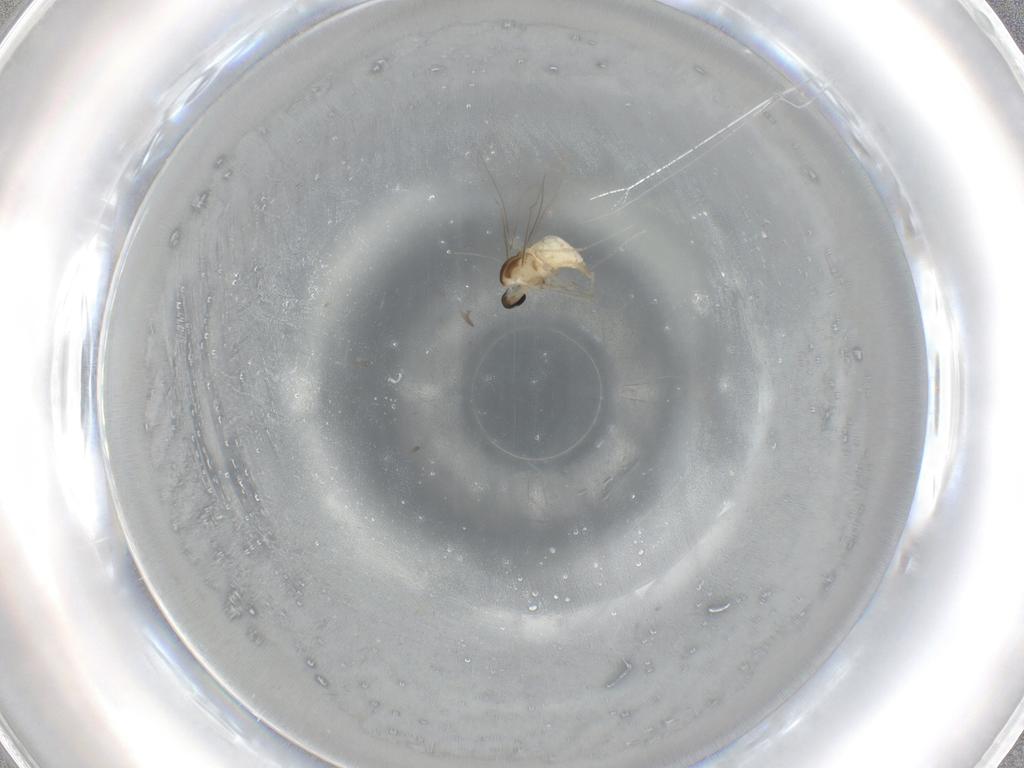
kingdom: Animalia
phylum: Arthropoda
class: Insecta
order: Diptera
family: Cecidomyiidae
